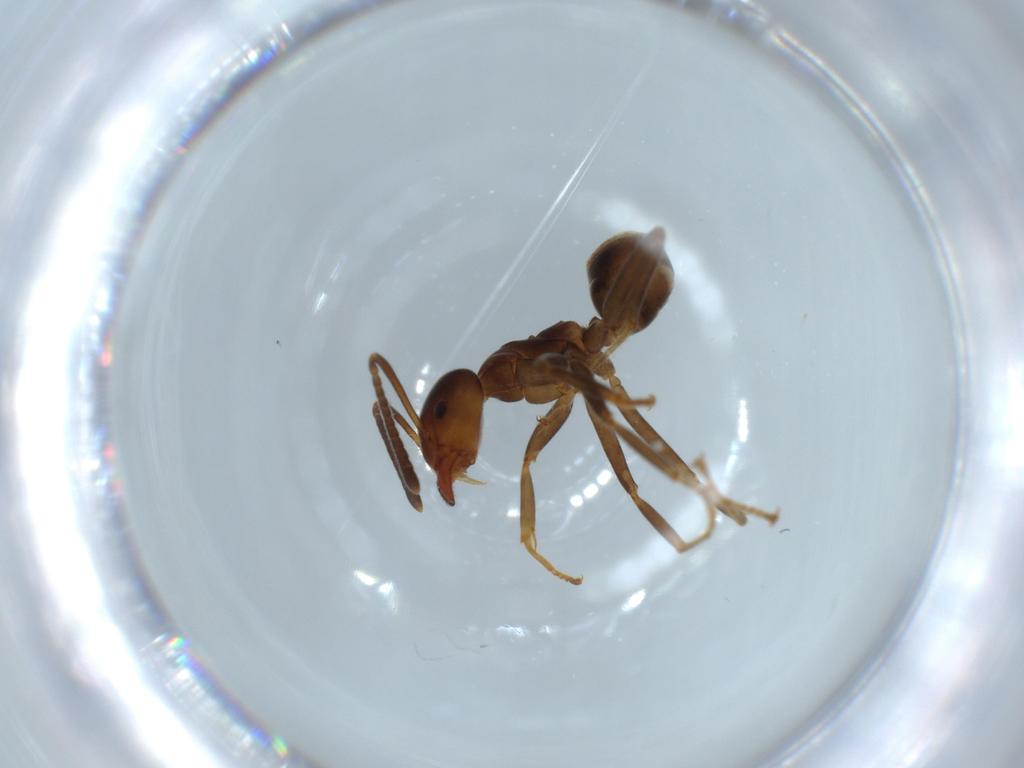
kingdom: Animalia
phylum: Arthropoda
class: Insecta
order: Hymenoptera
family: Formicidae
